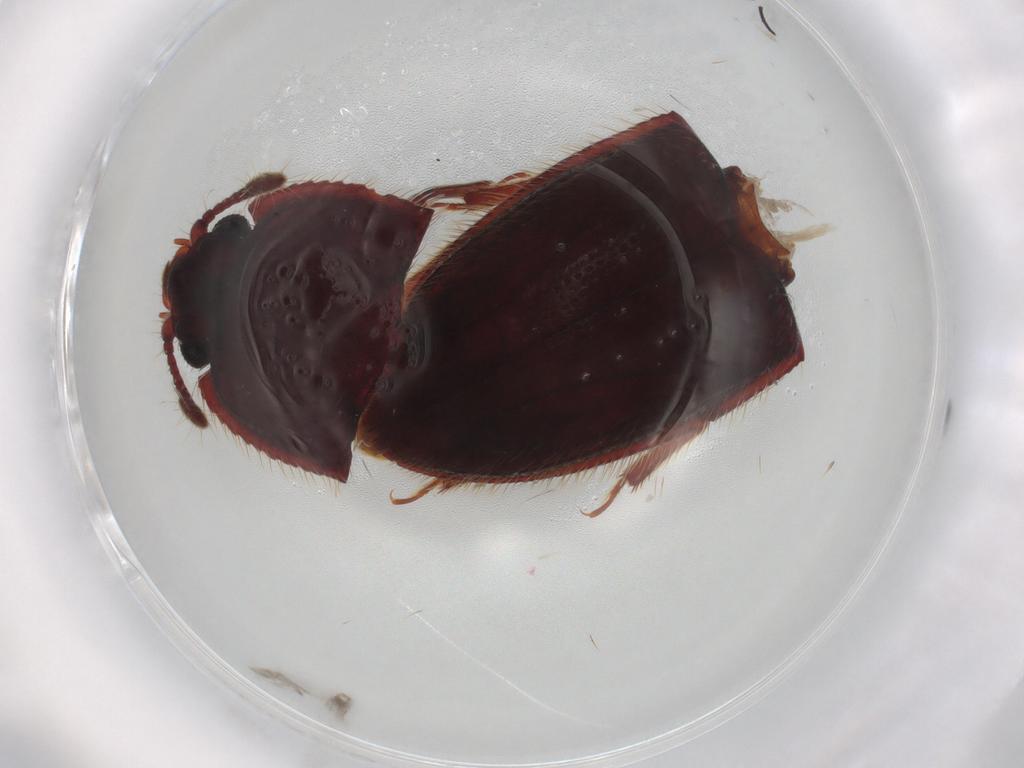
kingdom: Animalia
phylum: Arthropoda
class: Insecta
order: Coleoptera
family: Biphyllidae
